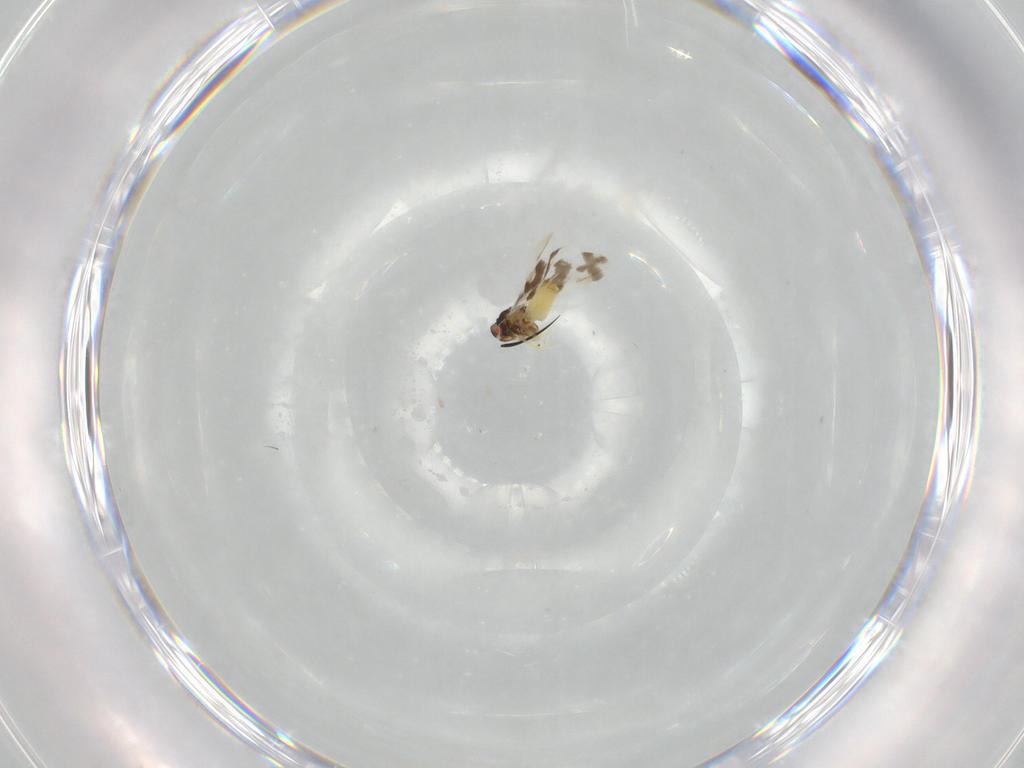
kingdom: Animalia
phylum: Arthropoda
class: Insecta
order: Hemiptera
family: Aleyrodidae
